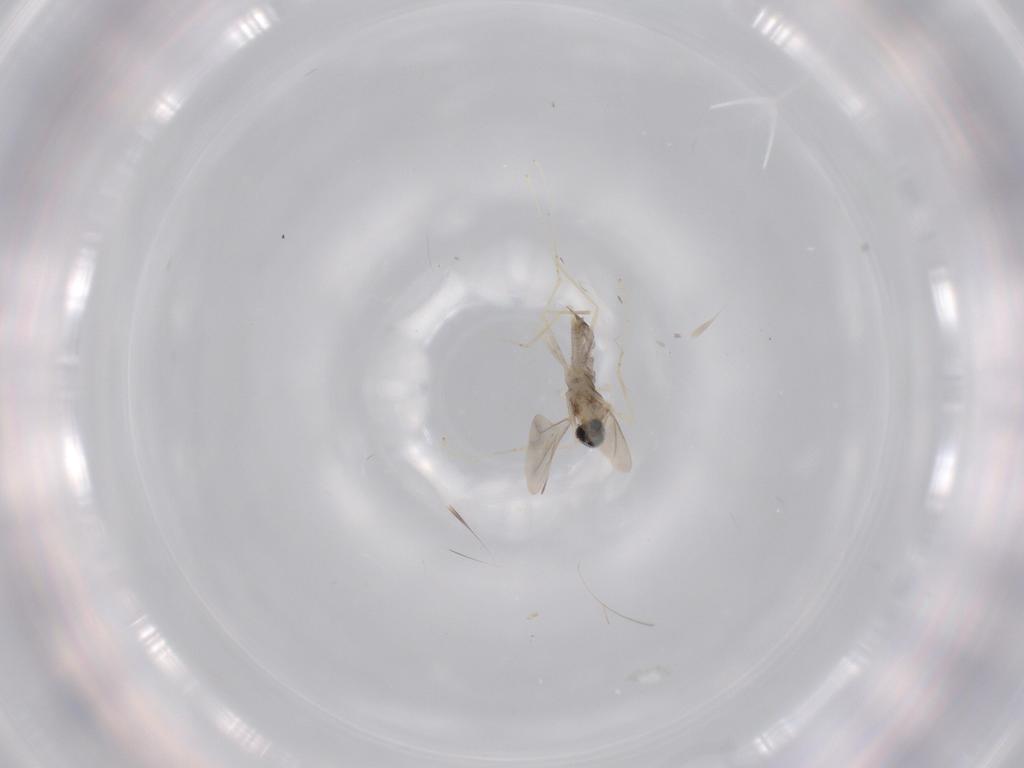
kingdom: Animalia
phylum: Arthropoda
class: Insecta
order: Diptera
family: Cecidomyiidae
